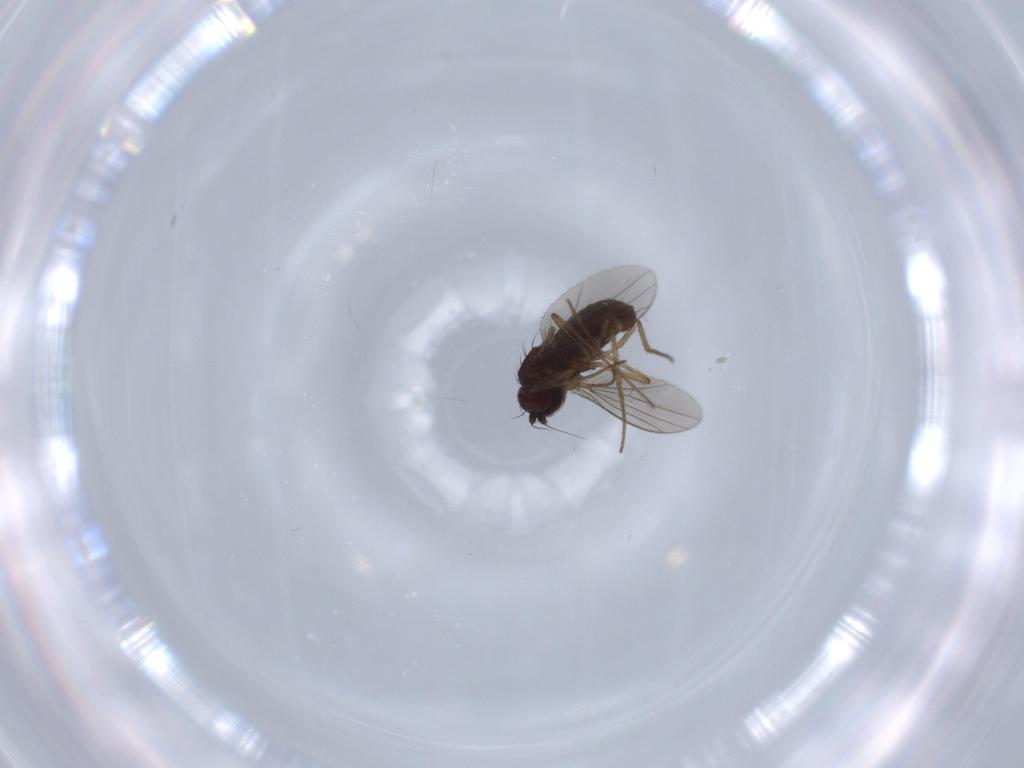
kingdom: Animalia
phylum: Arthropoda
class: Insecta
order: Diptera
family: Dolichopodidae
